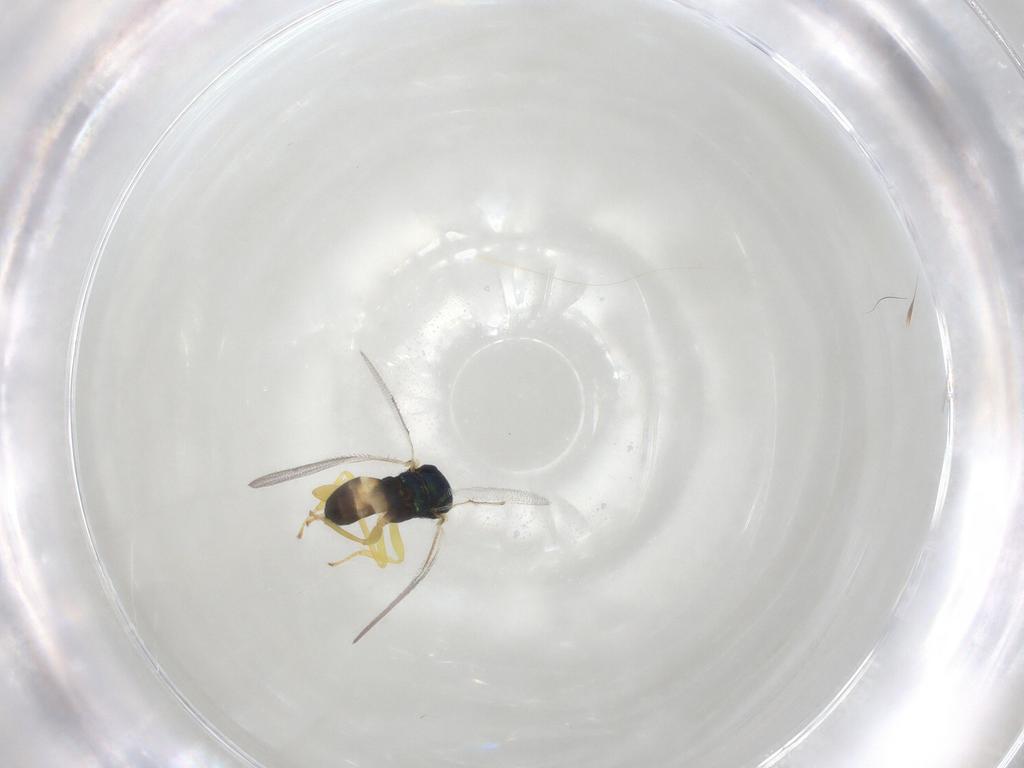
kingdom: Animalia
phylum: Arthropoda
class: Insecta
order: Hymenoptera
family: Pteromalidae
